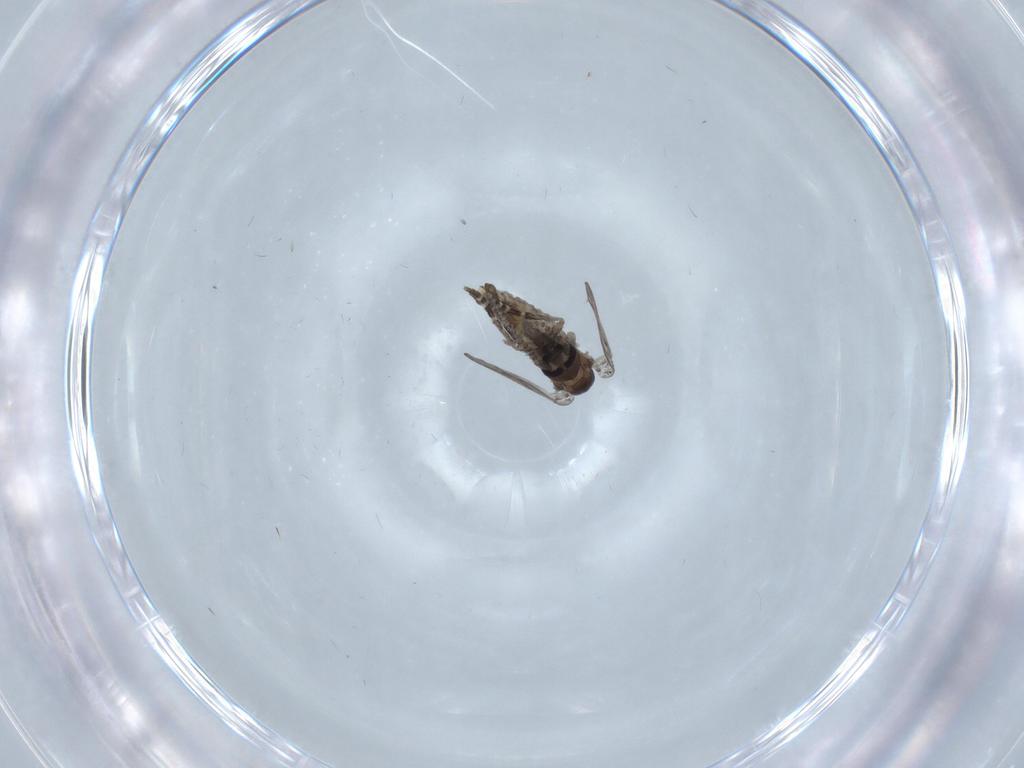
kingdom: Animalia
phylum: Arthropoda
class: Insecta
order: Diptera
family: Psychodidae
